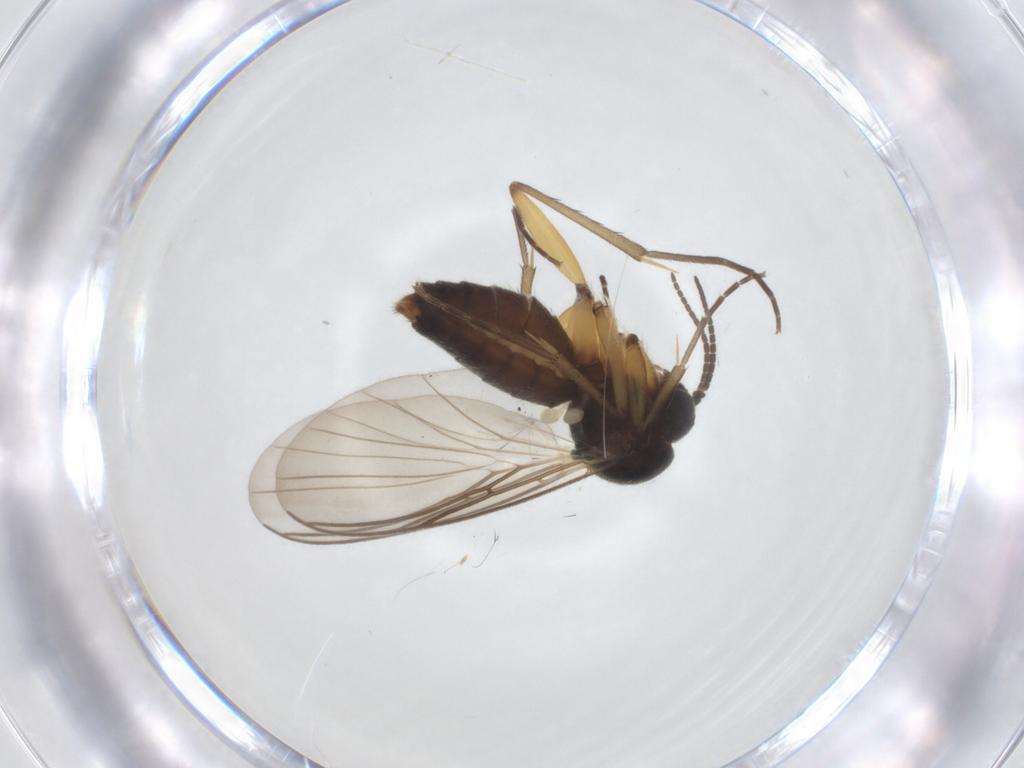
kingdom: Animalia
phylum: Arthropoda
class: Insecta
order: Diptera
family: Mycetophilidae
